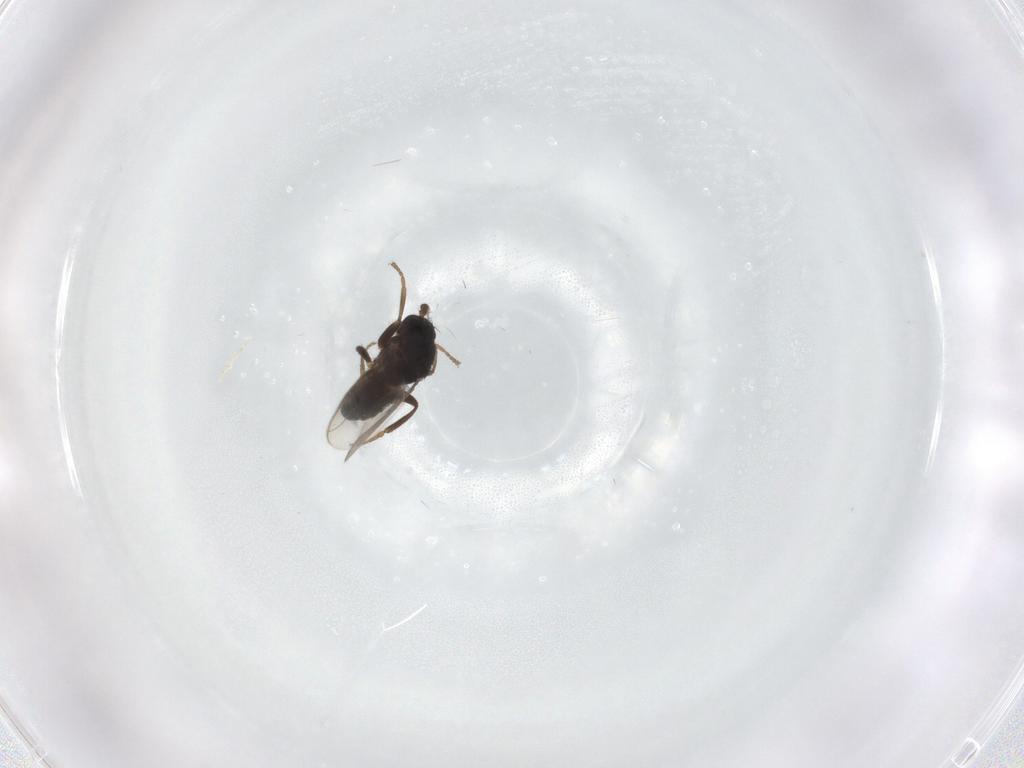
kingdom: Animalia
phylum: Arthropoda
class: Insecta
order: Diptera
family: Sphaeroceridae
